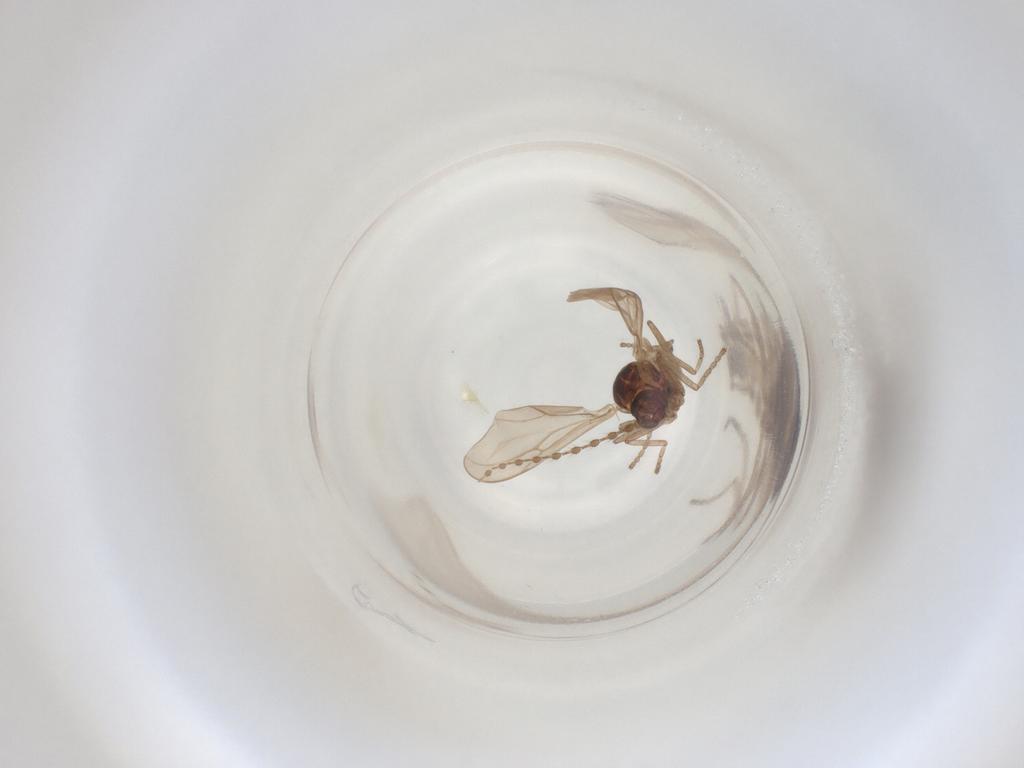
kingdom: Animalia
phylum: Arthropoda
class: Insecta
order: Diptera
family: Cecidomyiidae
